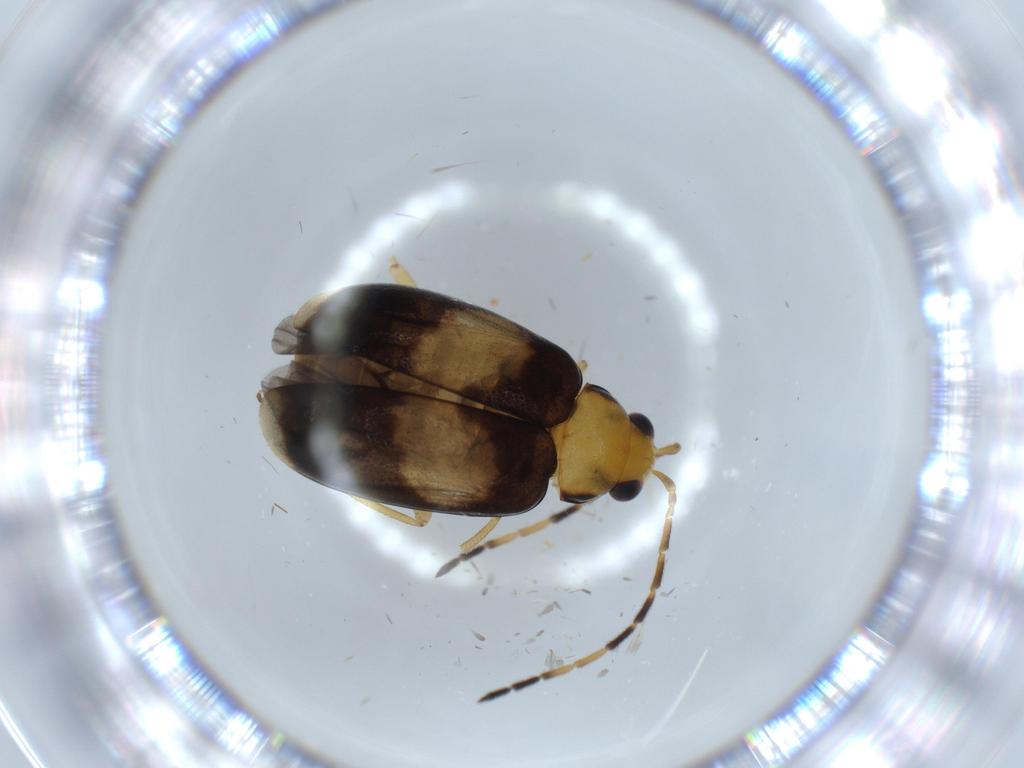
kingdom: Animalia
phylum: Arthropoda
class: Insecta
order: Coleoptera
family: Chrysomelidae
